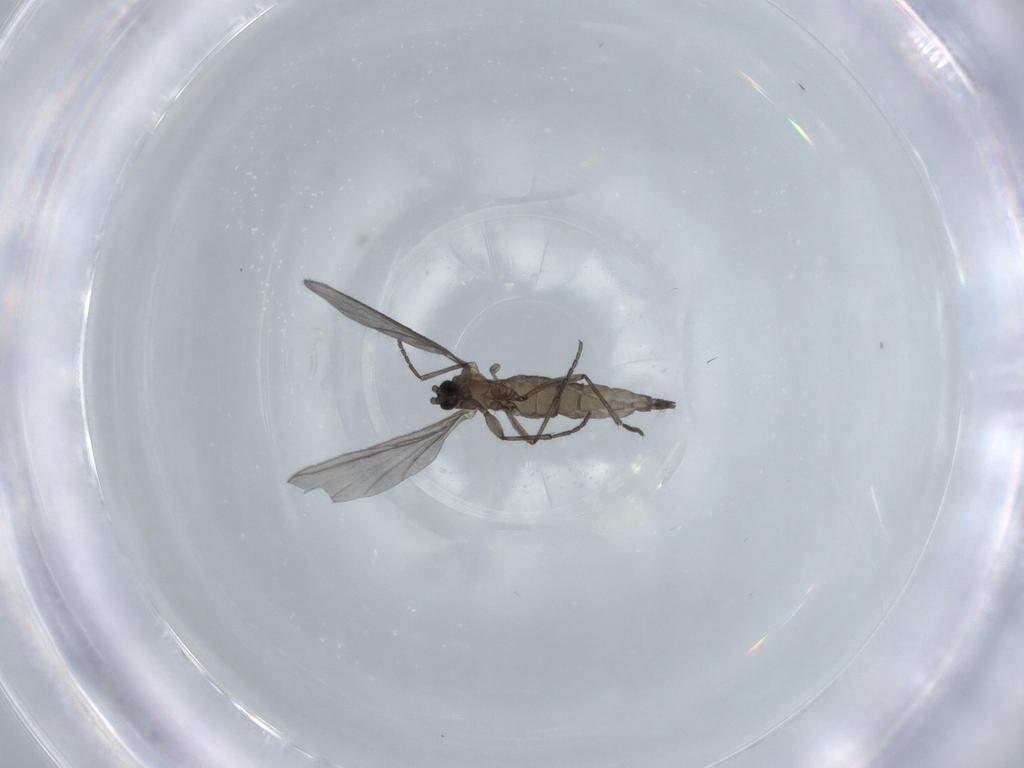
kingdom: Animalia
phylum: Arthropoda
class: Insecta
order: Diptera
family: Sciaridae
